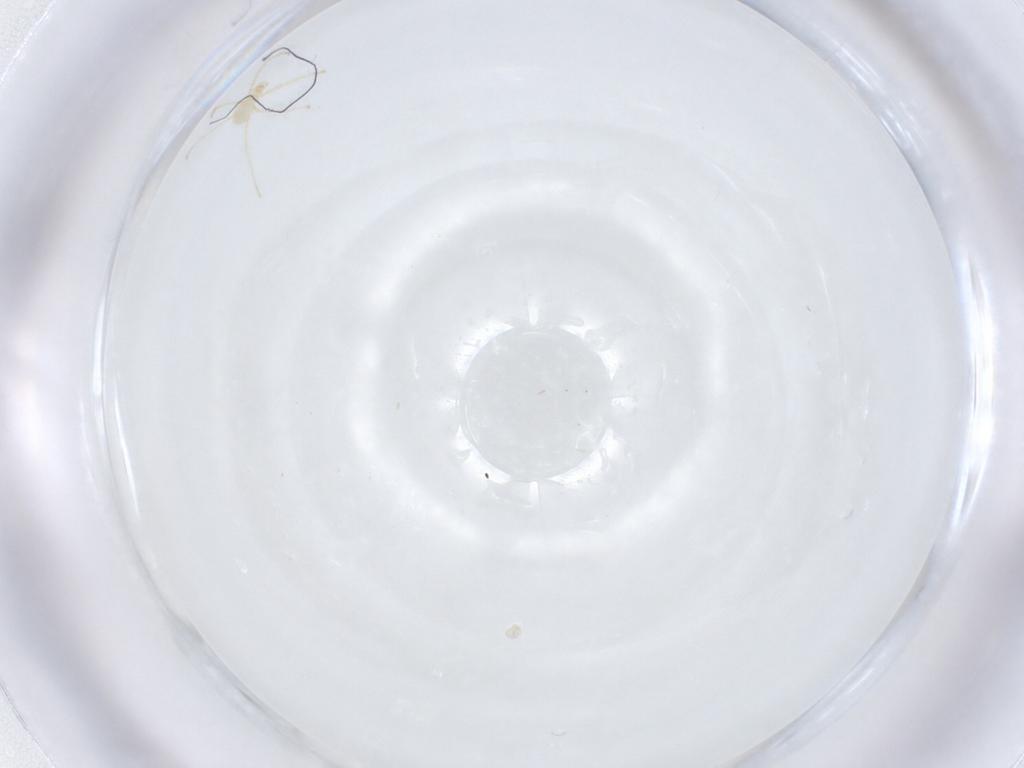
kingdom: Animalia
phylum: Arthropoda
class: Arachnida
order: Trombidiformes
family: Erythraeidae
